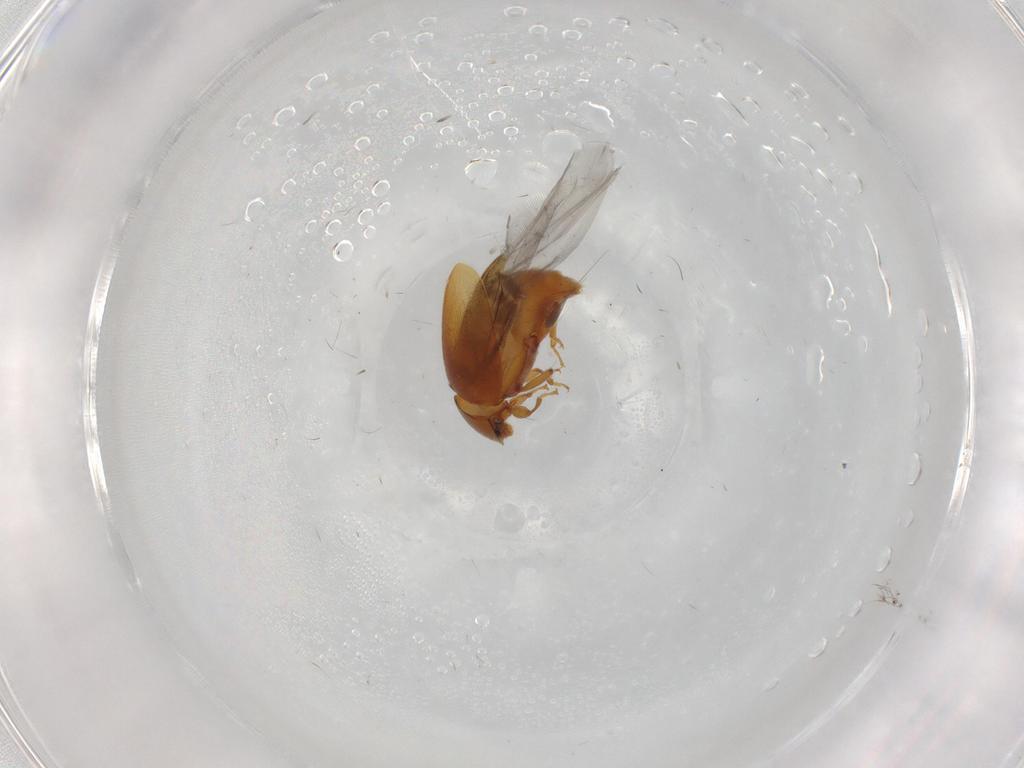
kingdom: Animalia
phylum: Arthropoda
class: Insecta
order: Coleoptera
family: Corylophidae
